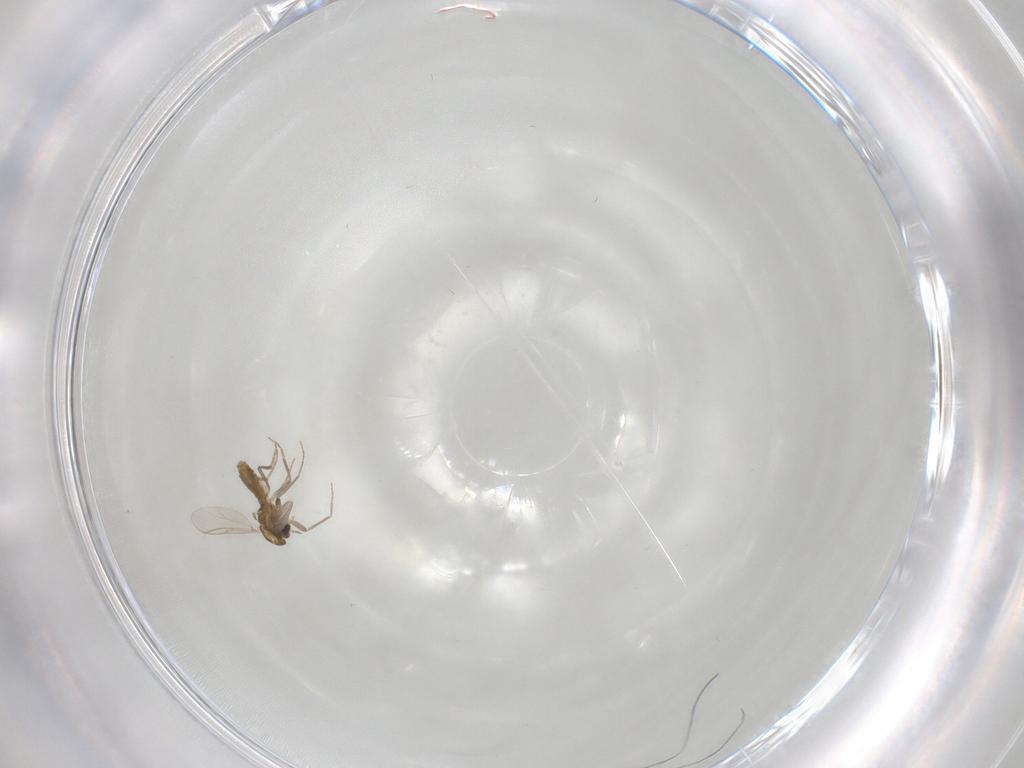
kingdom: Animalia
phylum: Arthropoda
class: Insecta
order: Diptera
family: Chironomidae
